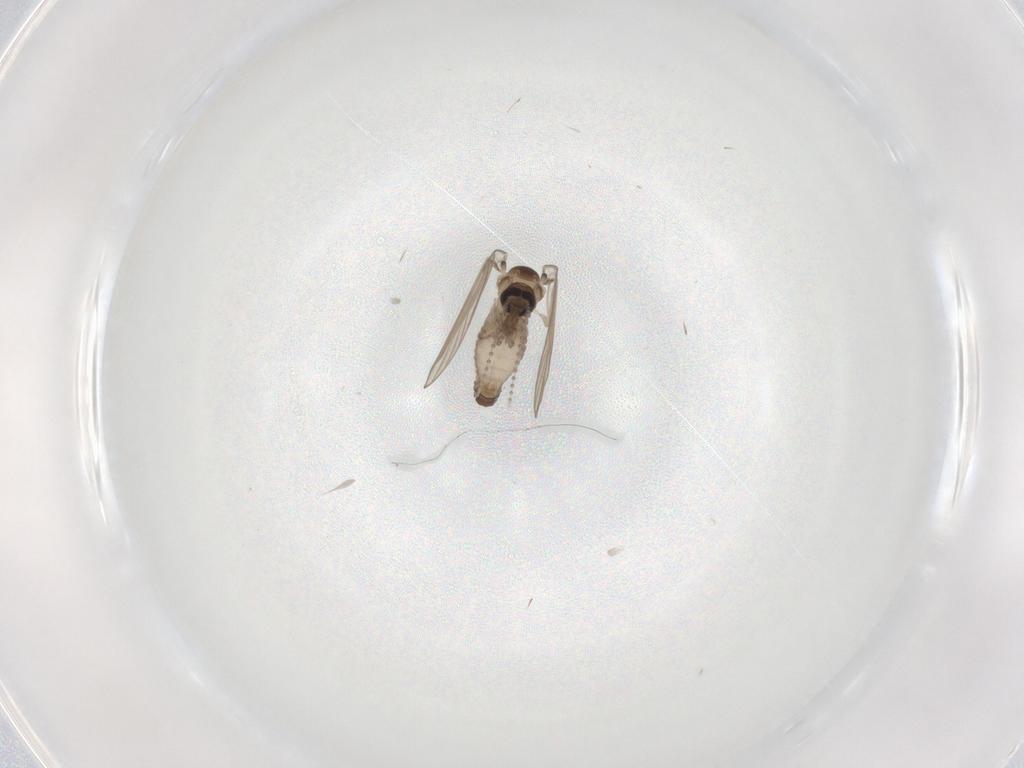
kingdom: Animalia
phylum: Arthropoda
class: Insecta
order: Diptera
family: Psychodidae
